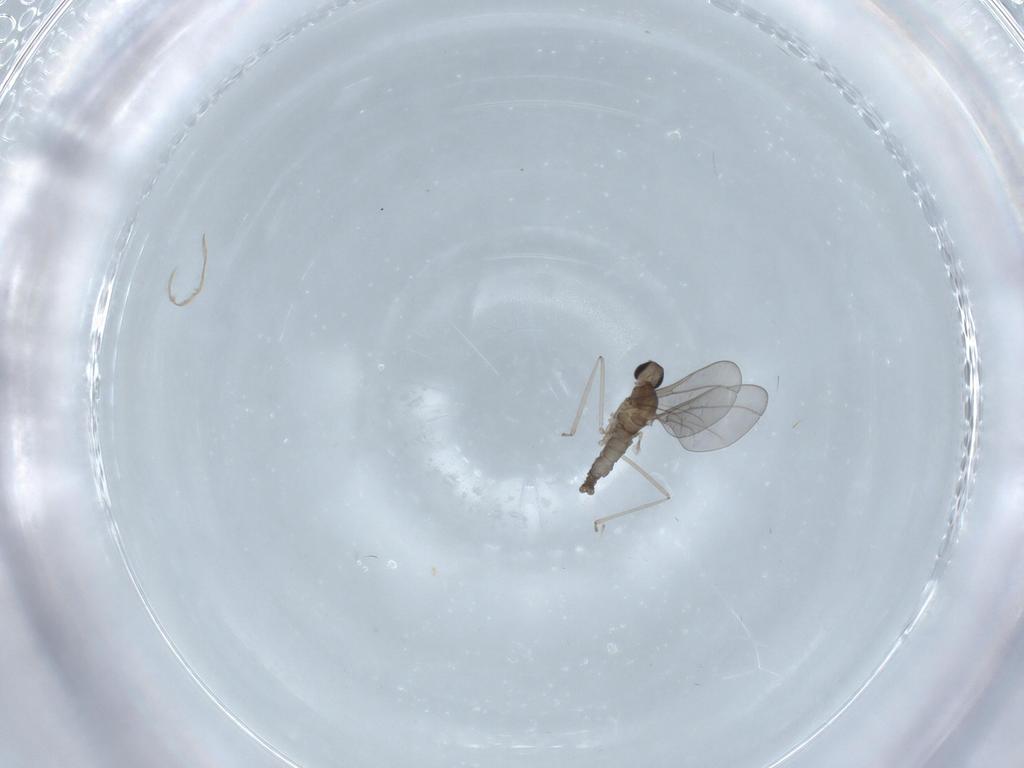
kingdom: Animalia
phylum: Arthropoda
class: Insecta
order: Diptera
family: Cecidomyiidae
